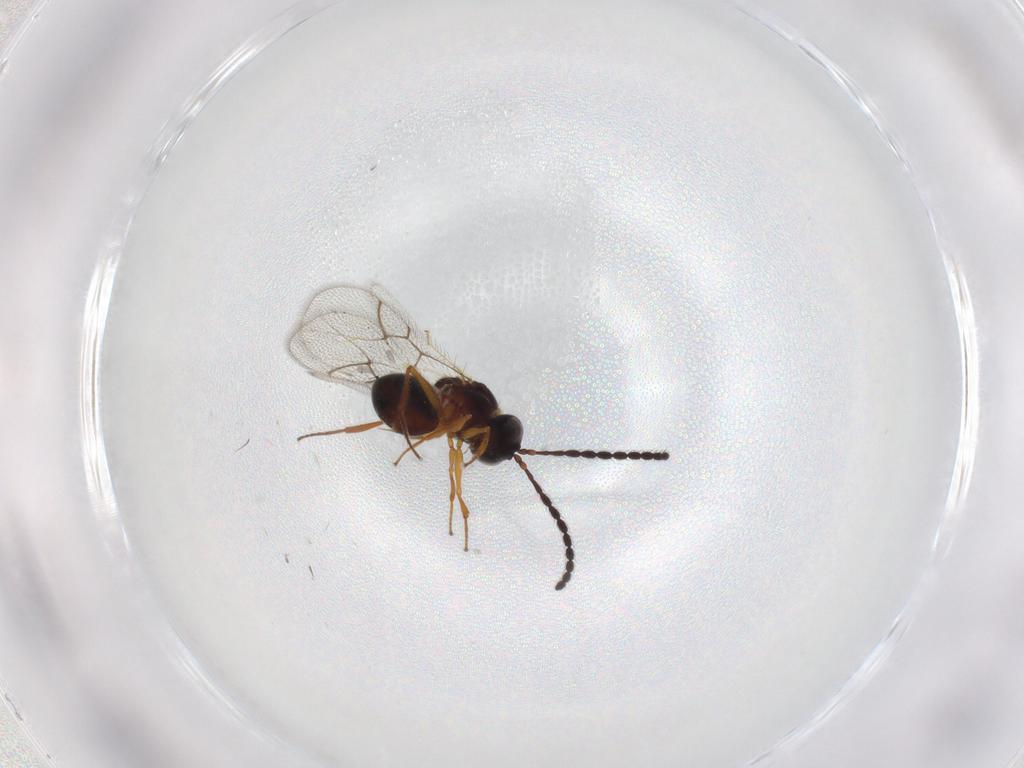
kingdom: Animalia
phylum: Arthropoda
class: Insecta
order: Hymenoptera
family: Figitidae
